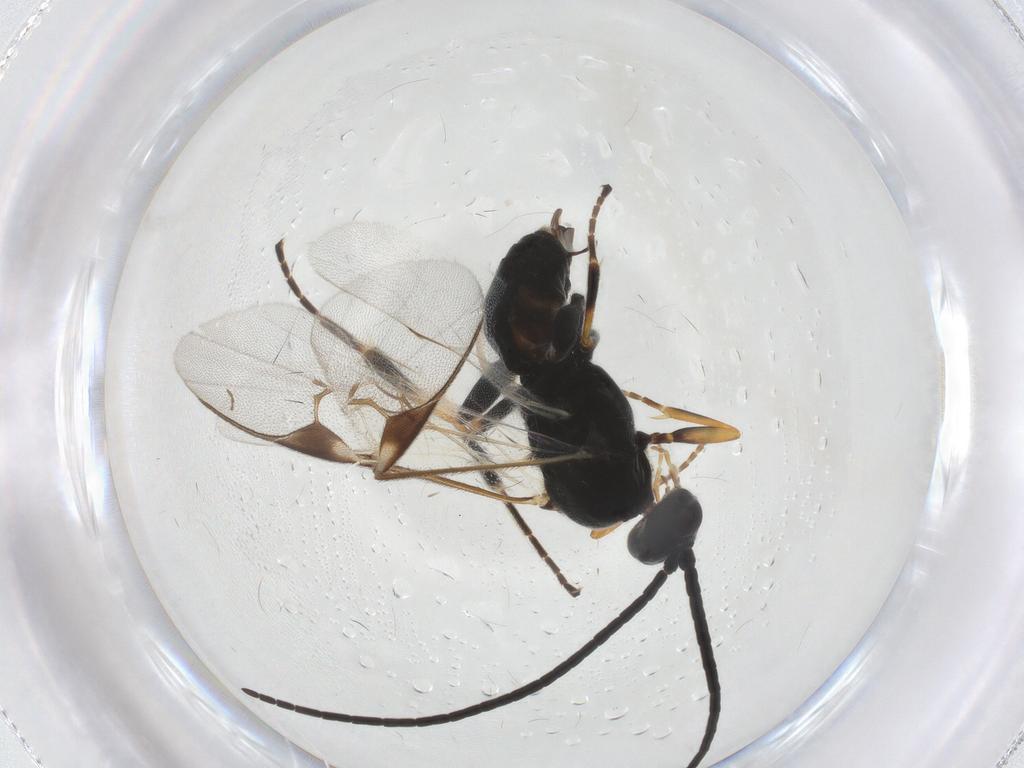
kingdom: Animalia
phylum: Arthropoda
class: Insecta
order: Hymenoptera
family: Braconidae
